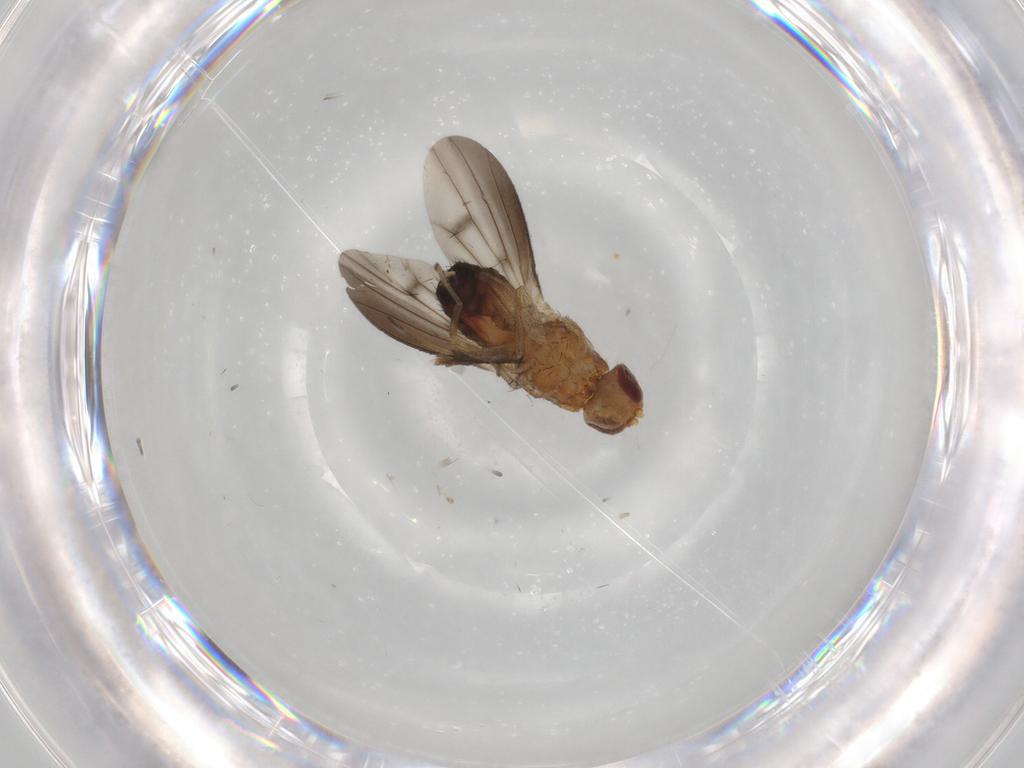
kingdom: Animalia
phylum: Arthropoda
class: Insecta
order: Diptera
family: Heleomyzidae
